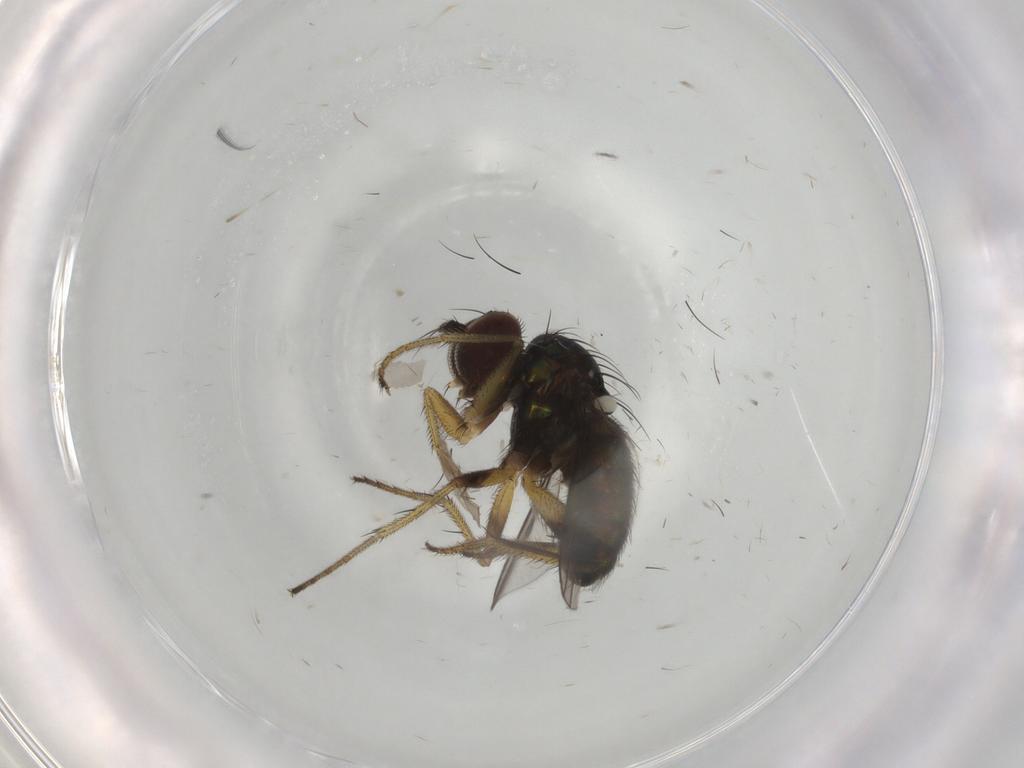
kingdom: Animalia
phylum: Arthropoda
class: Insecta
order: Diptera
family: Dolichopodidae
